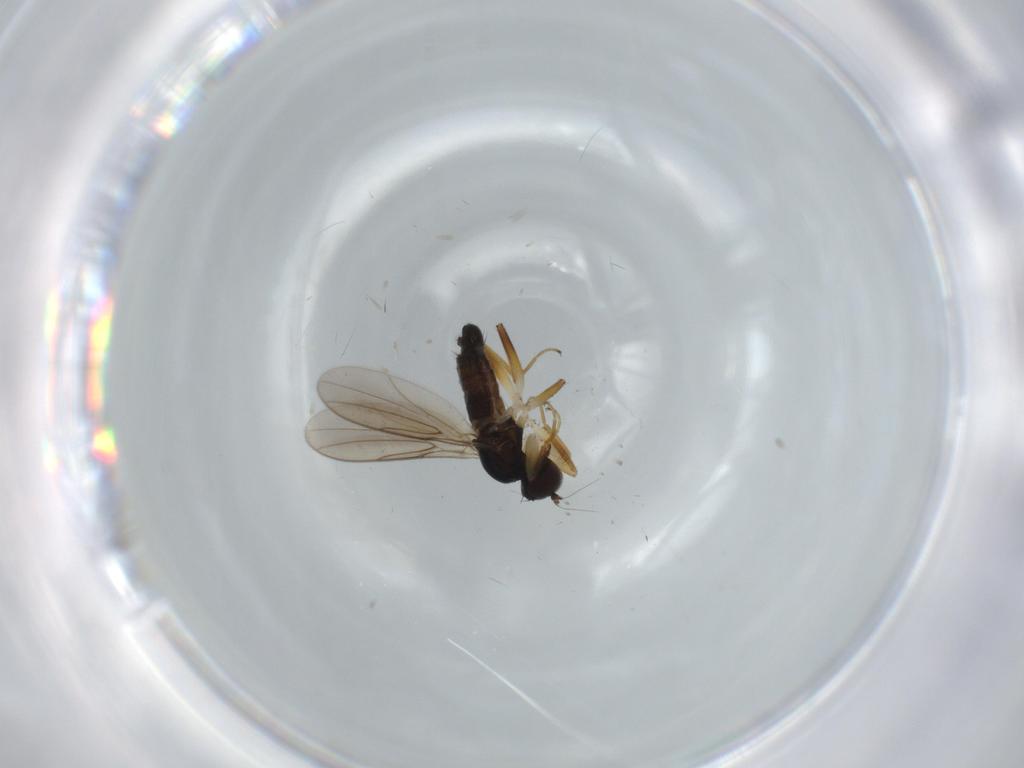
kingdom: Animalia
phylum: Arthropoda
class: Insecta
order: Diptera
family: Hybotidae
